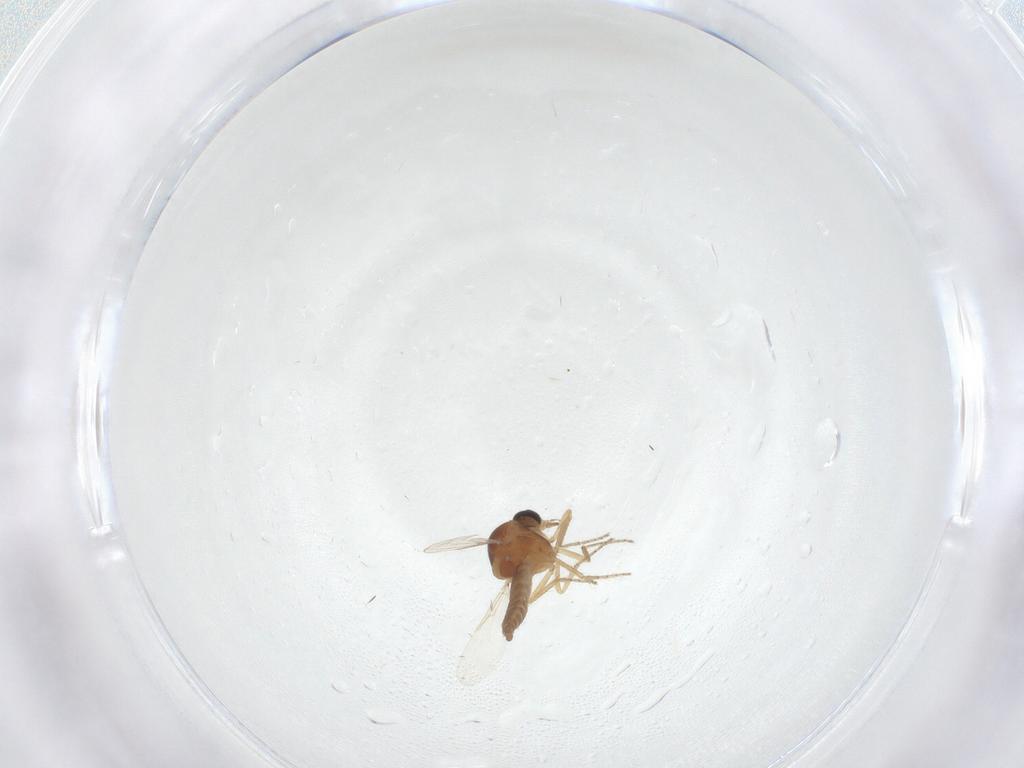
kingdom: Animalia
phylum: Arthropoda
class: Insecta
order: Diptera
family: Ceratopogonidae
